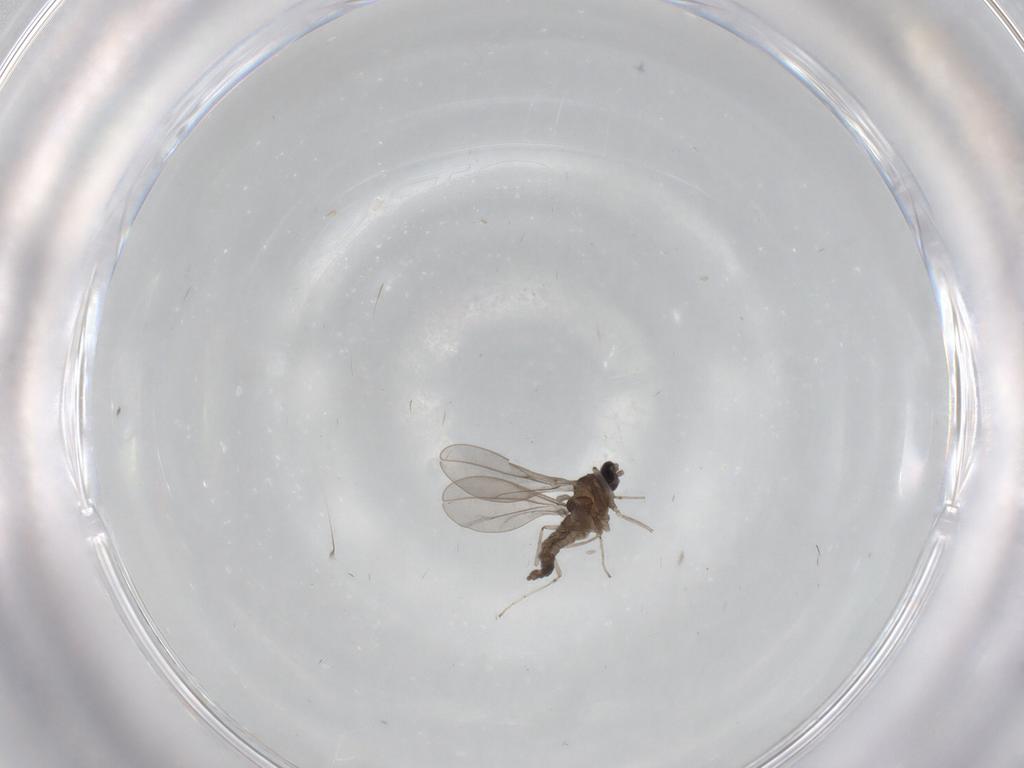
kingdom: Animalia
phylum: Arthropoda
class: Insecta
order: Diptera
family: Cecidomyiidae
